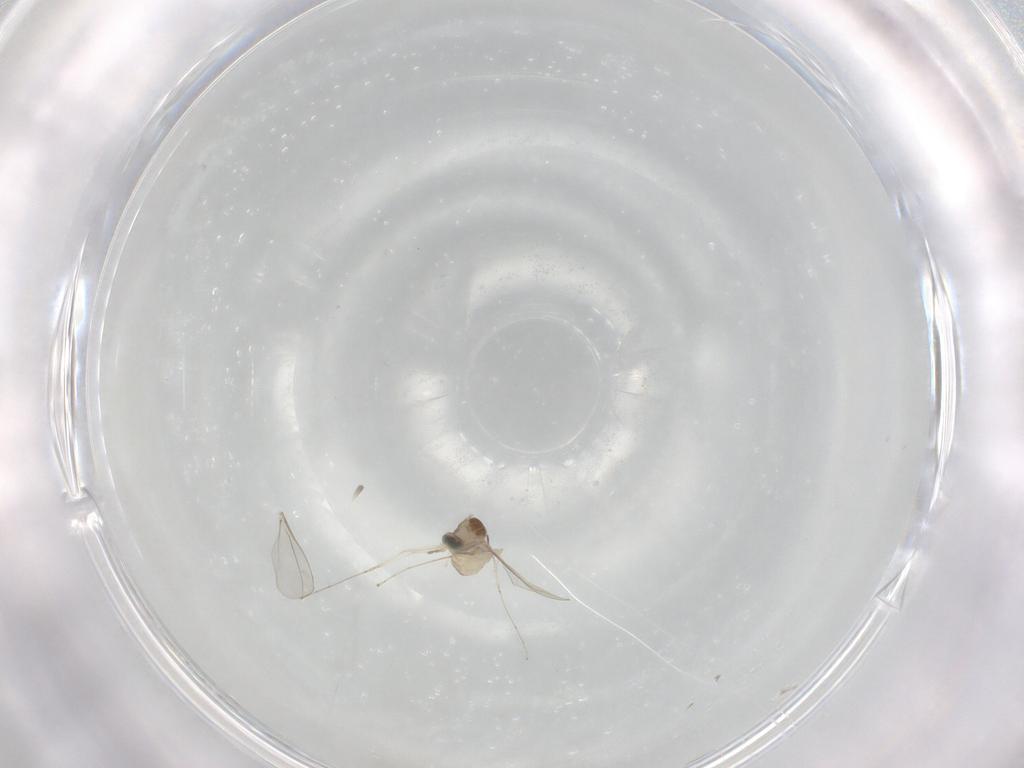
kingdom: Animalia
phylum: Arthropoda
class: Insecta
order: Diptera
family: Cecidomyiidae
